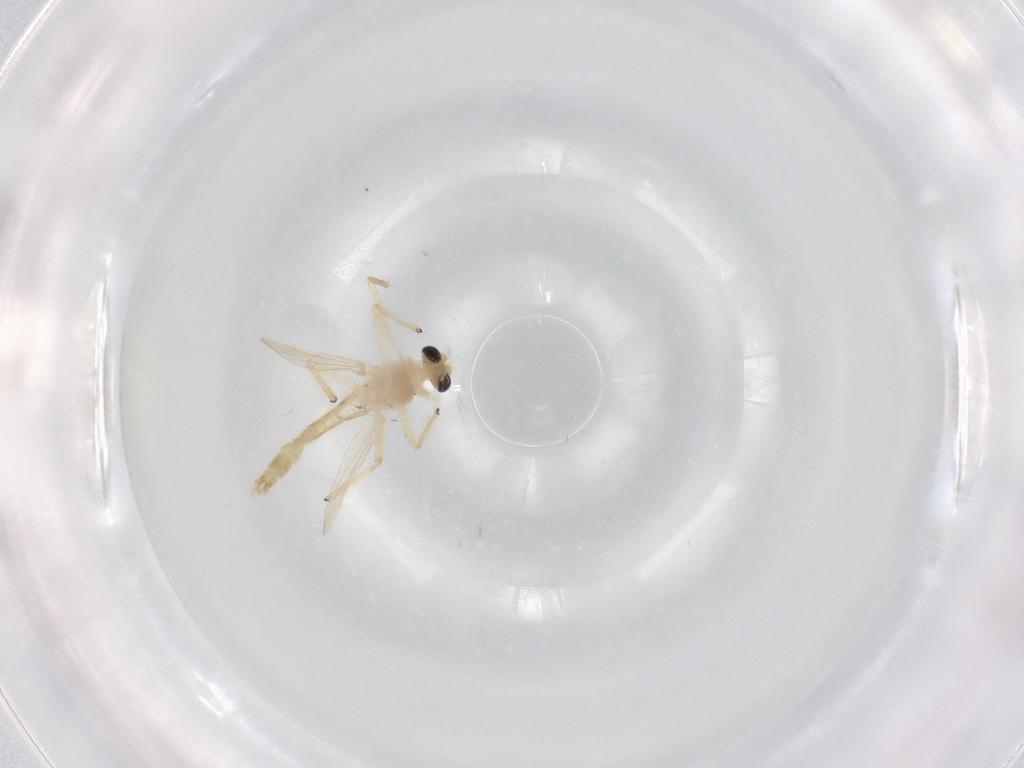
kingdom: Animalia
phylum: Arthropoda
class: Insecta
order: Diptera
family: Chironomidae
